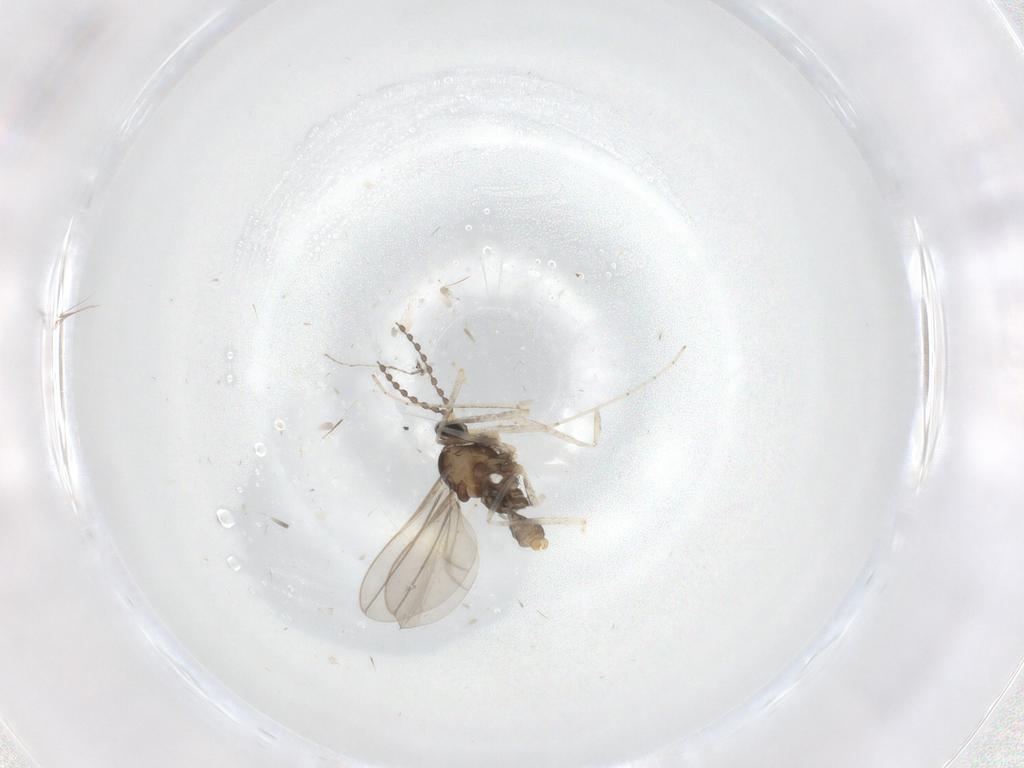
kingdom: Animalia
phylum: Arthropoda
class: Insecta
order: Diptera
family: Cecidomyiidae
